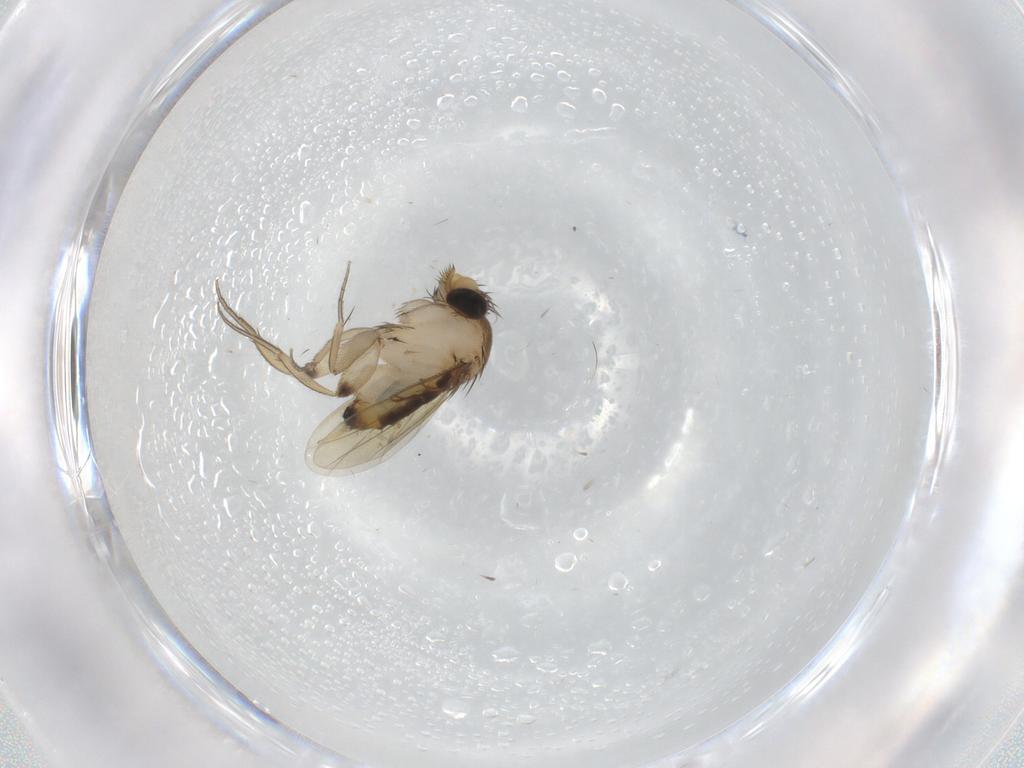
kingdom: Animalia
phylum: Arthropoda
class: Insecta
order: Diptera
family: Phoridae
